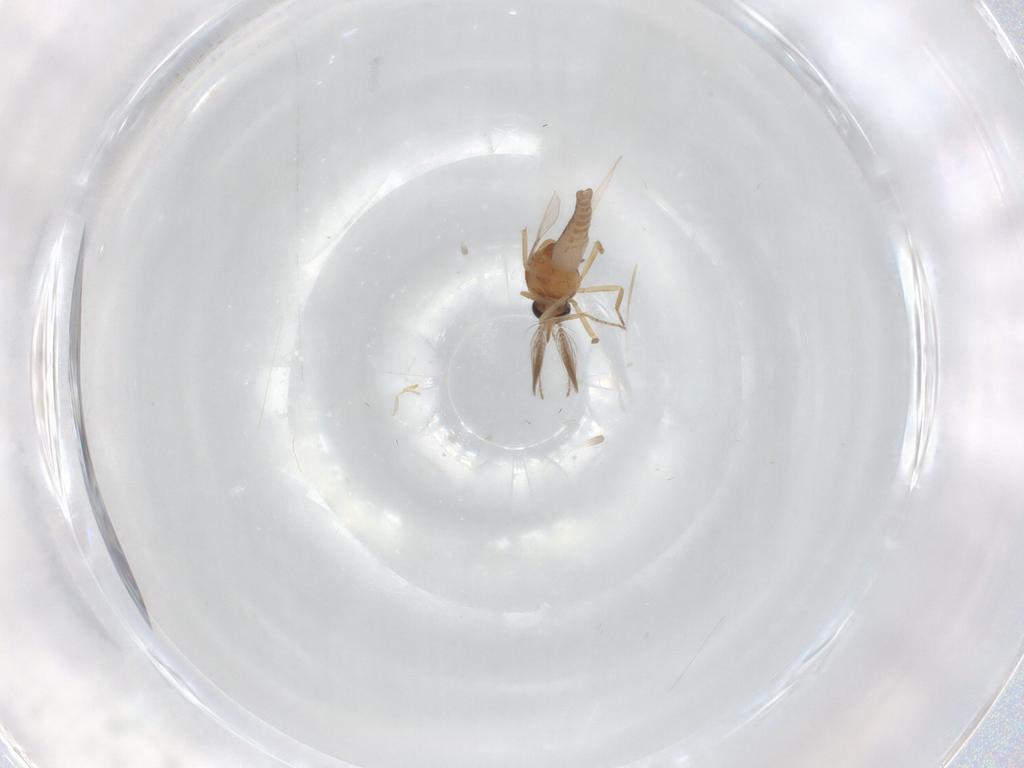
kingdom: Animalia
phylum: Arthropoda
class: Insecta
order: Diptera
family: Ceratopogonidae
